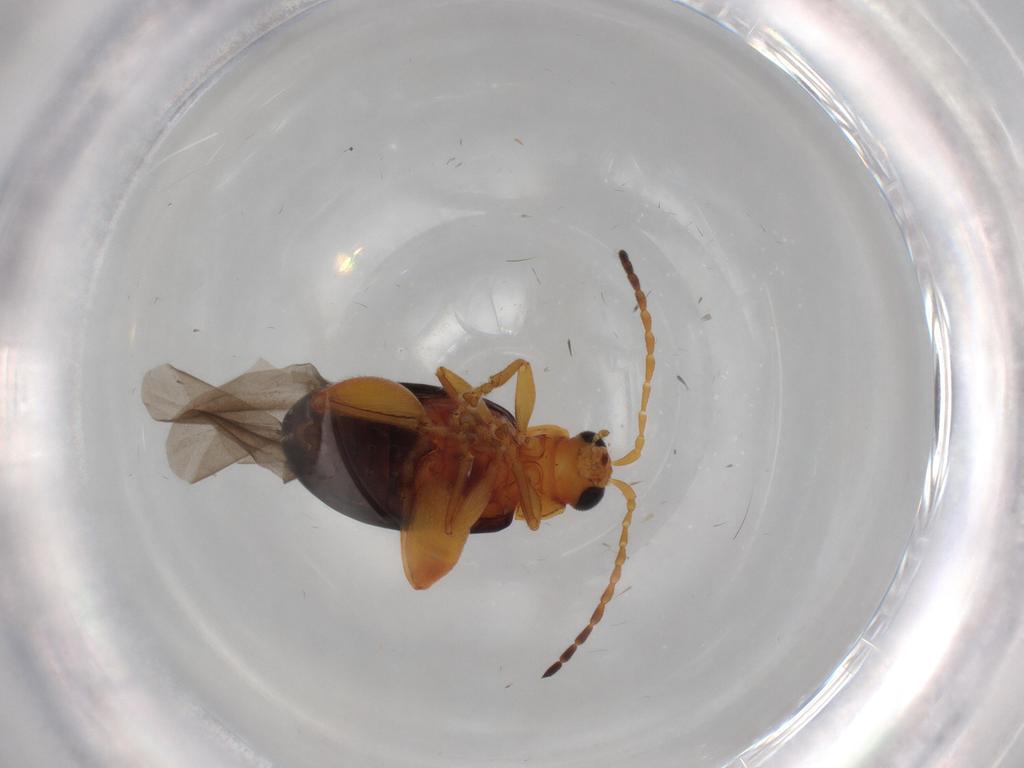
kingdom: Animalia
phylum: Arthropoda
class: Insecta
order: Coleoptera
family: Chrysomelidae
